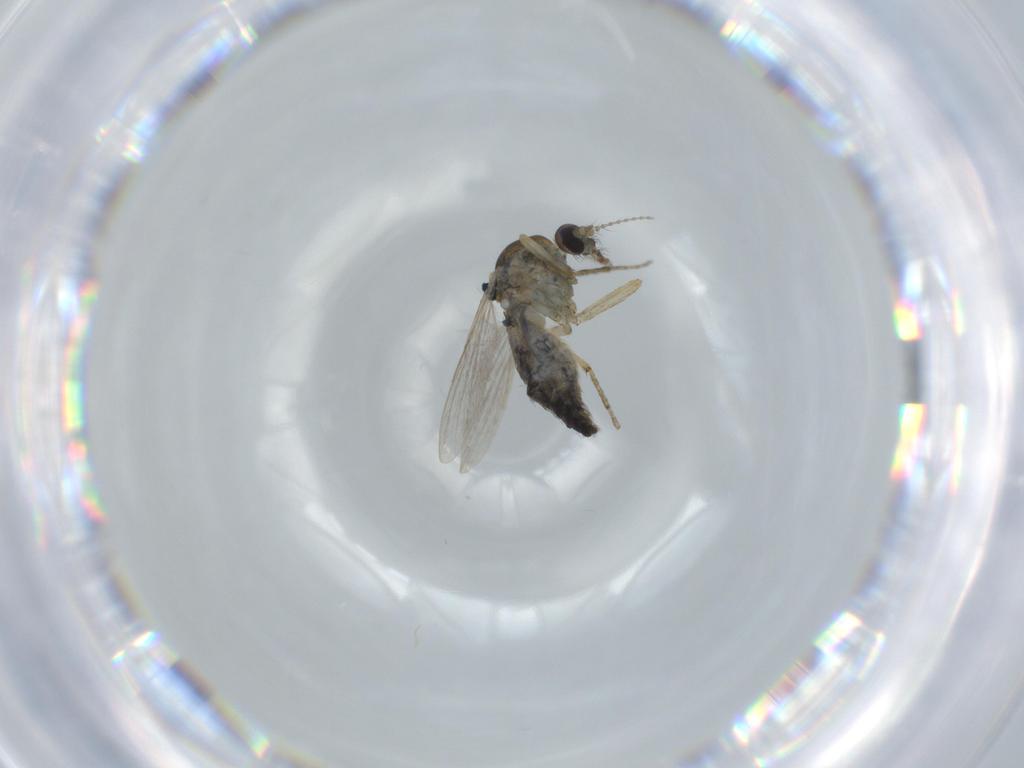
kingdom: Animalia
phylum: Arthropoda
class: Insecta
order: Diptera
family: Ceratopogonidae
